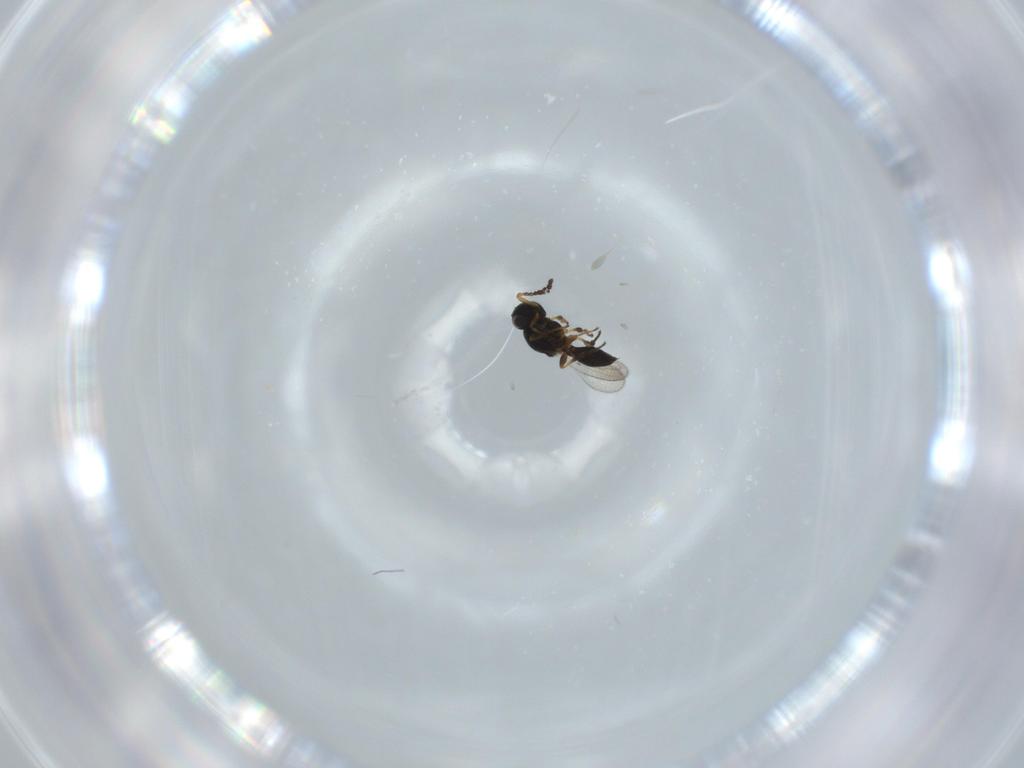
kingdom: Animalia
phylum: Arthropoda
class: Insecta
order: Hymenoptera
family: Scelionidae
